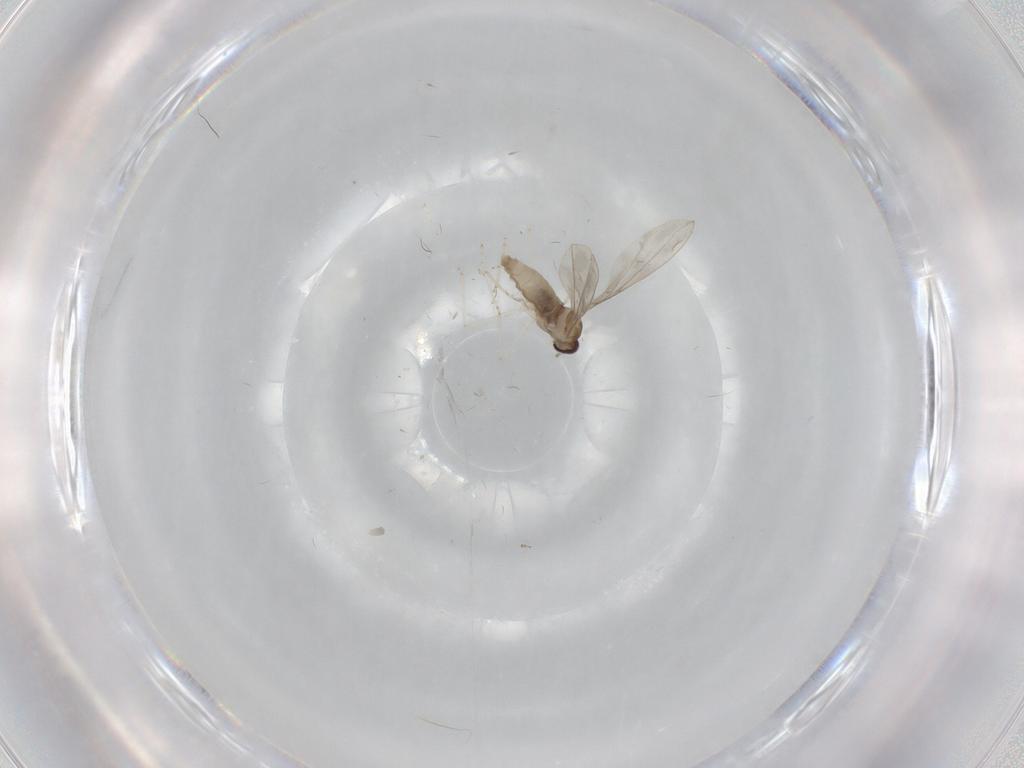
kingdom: Animalia
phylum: Arthropoda
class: Insecta
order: Diptera
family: Cecidomyiidae
